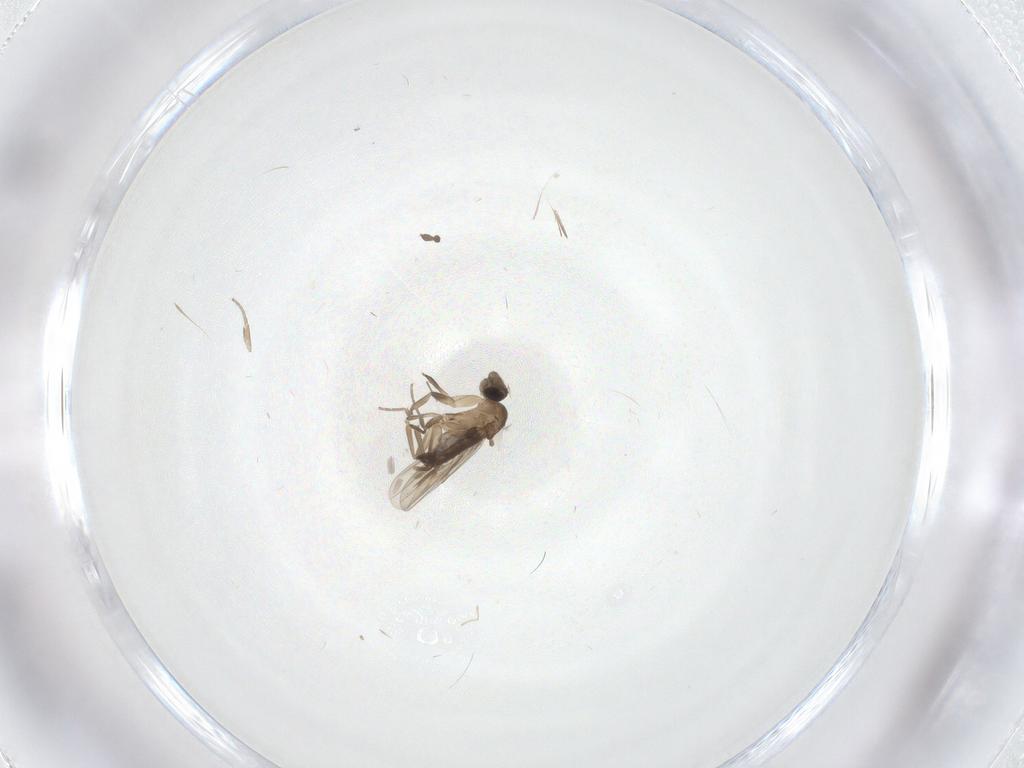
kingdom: Animalia
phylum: Arthropoda
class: Insecta
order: Diptera
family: Phoridae
